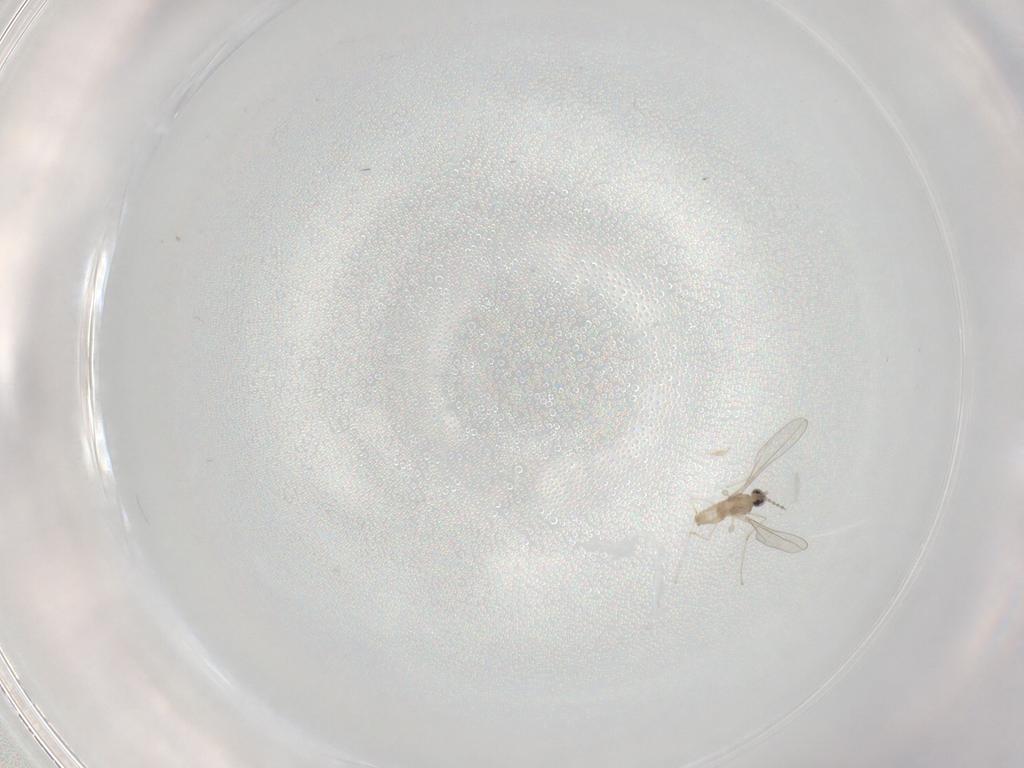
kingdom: Animalia
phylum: Arthropoda
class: Insecta
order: Diptera
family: Cecidomyiidae
